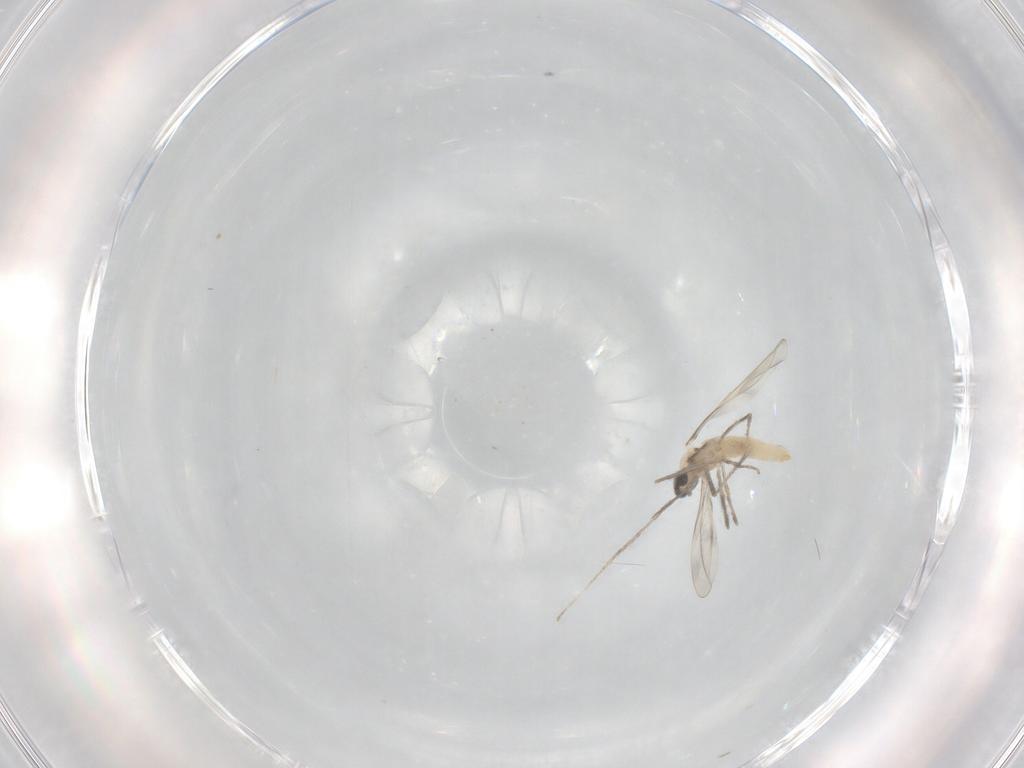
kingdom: Animalia
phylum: Arthropoda
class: Insecta
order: Diptera
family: Cecidomyiidae
